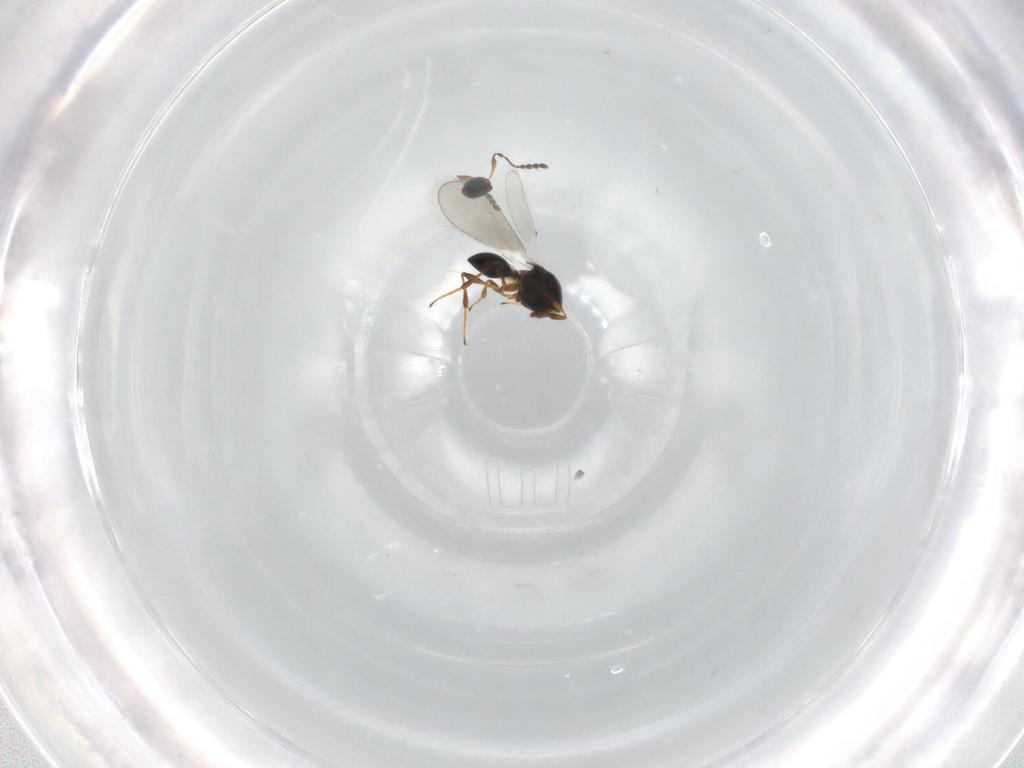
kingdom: Animalia
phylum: Arthropoda
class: Insecta
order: Hymenoptera
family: Platygastridae
